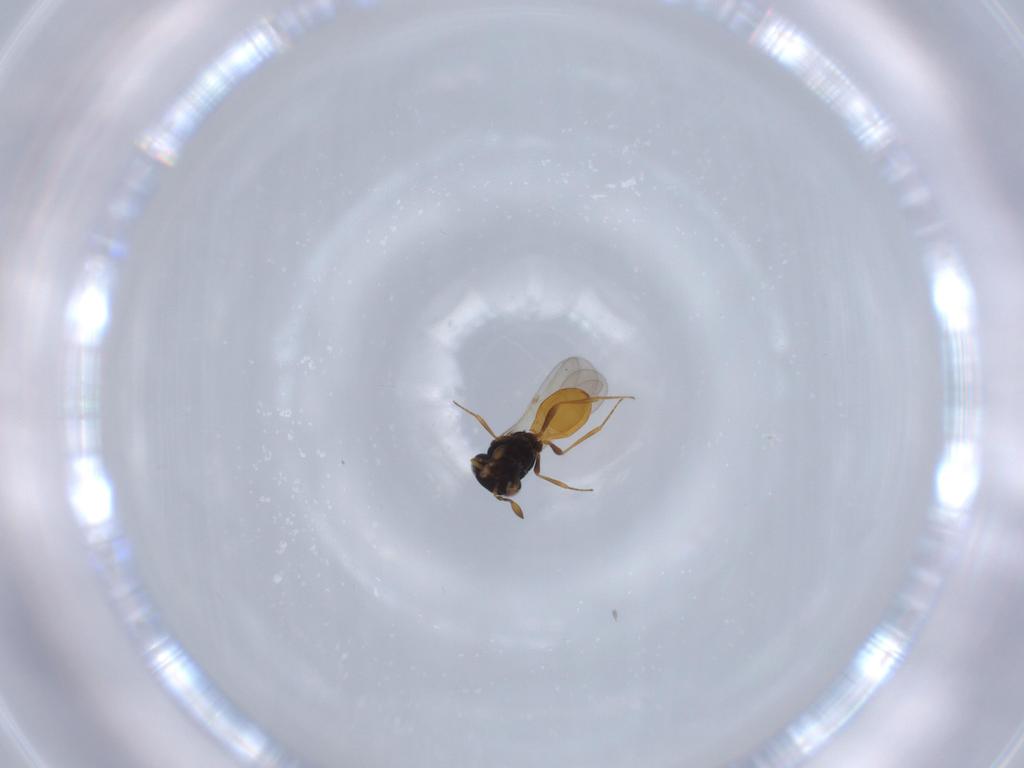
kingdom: Animalia
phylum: Arthropoda
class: Insecta
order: Hymenoptera
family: Scelionidae
